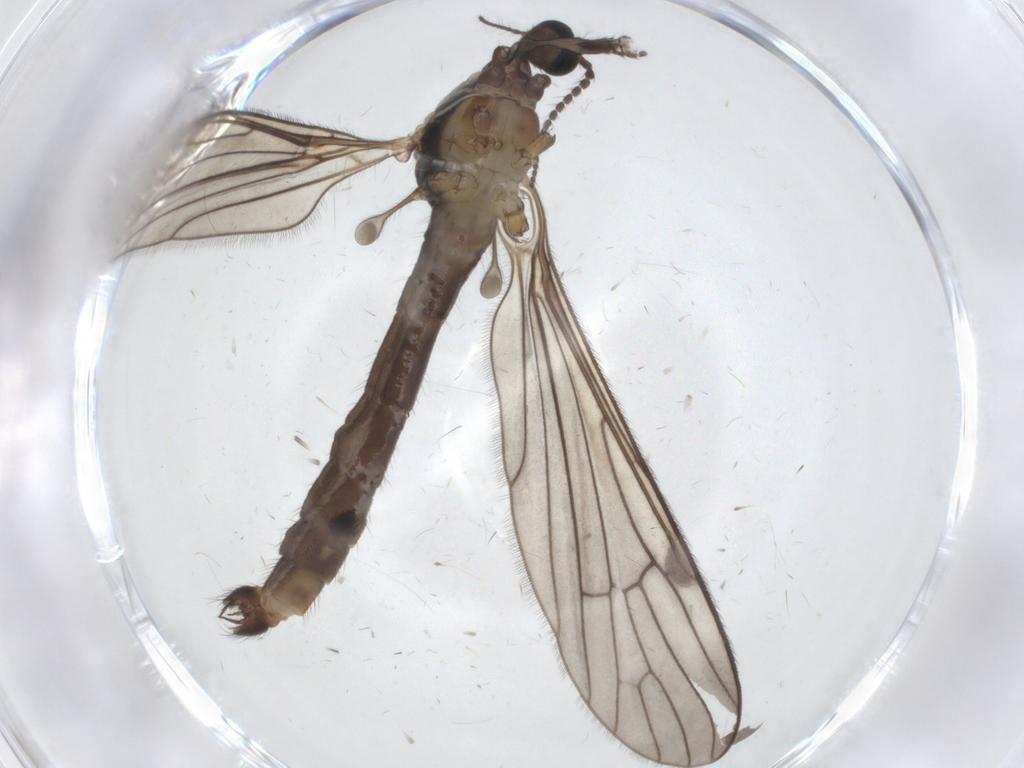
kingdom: Animalia
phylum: Arthropoda
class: Insecta
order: Diptera
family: Limoniidae
